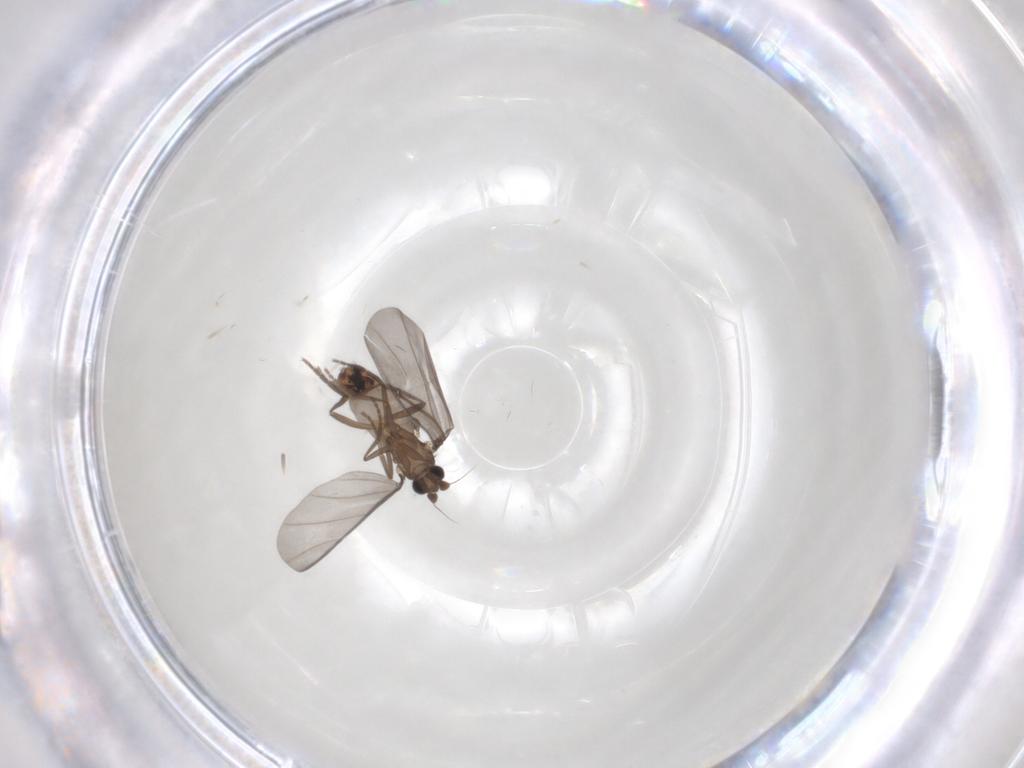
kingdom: Animalia
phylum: Arthropoda
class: Insecta
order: Diptera
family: Phoridae
